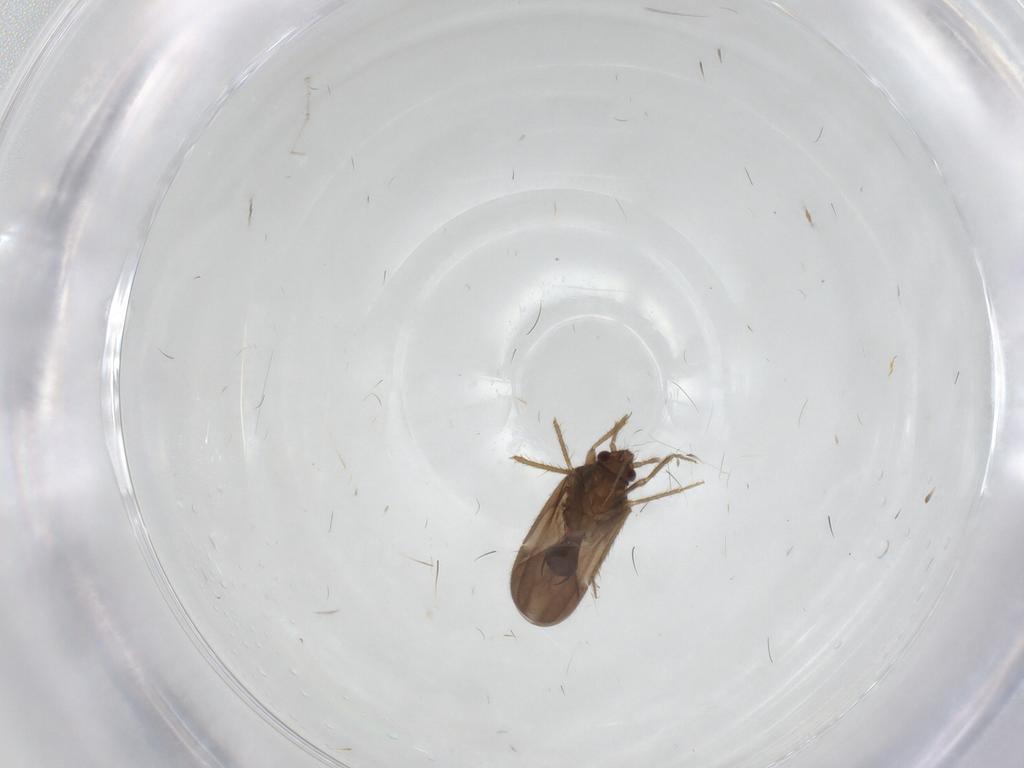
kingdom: Animalia
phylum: Arthropoda
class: Insecta
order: Hemiptera
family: Ceratocombidae
